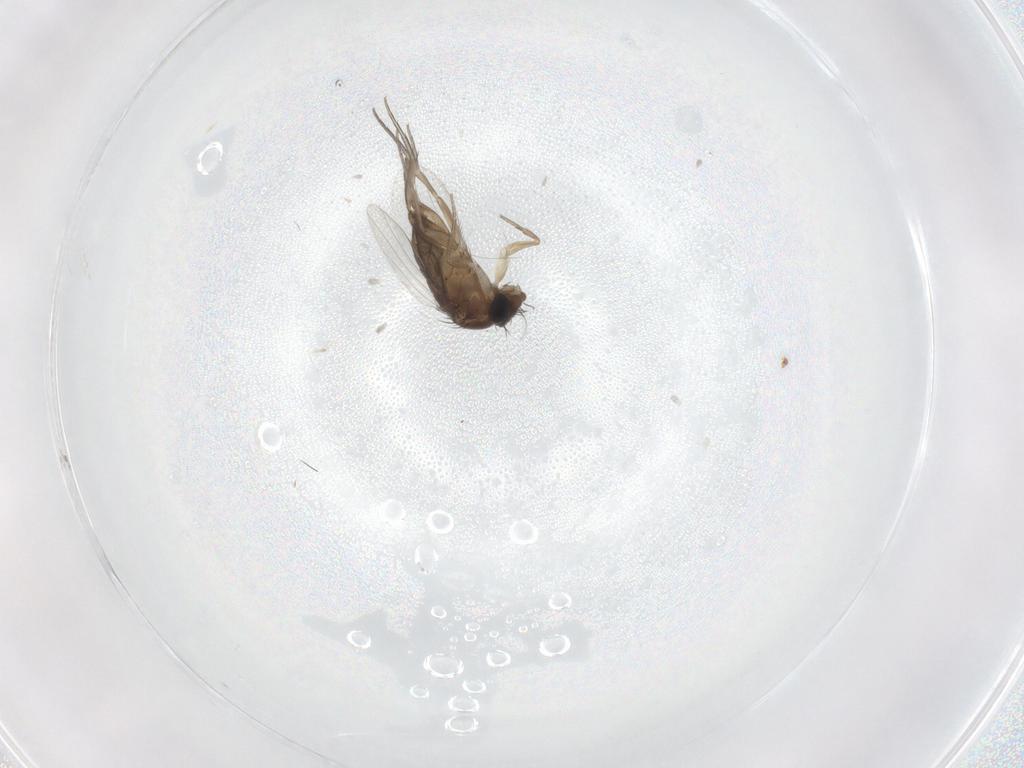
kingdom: Animalia
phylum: Arthropoda
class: Insecta
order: Diptera
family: Phoridae
